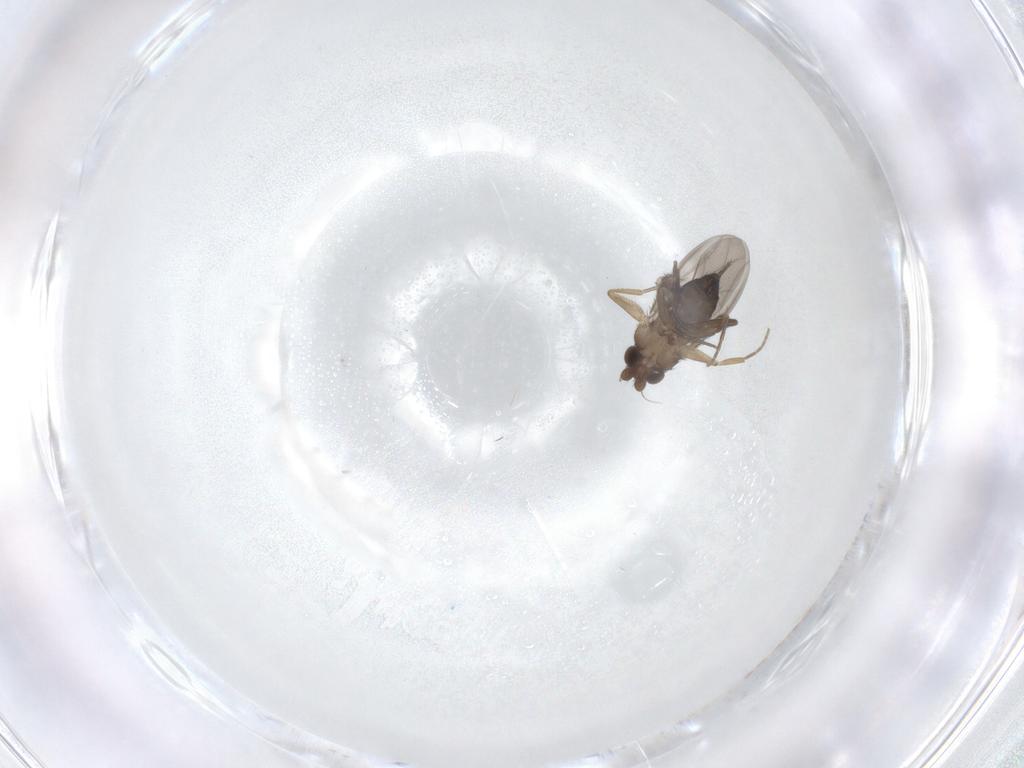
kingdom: Animalia
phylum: Arthropoda
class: Insecta
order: Diptera
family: Phoridae
